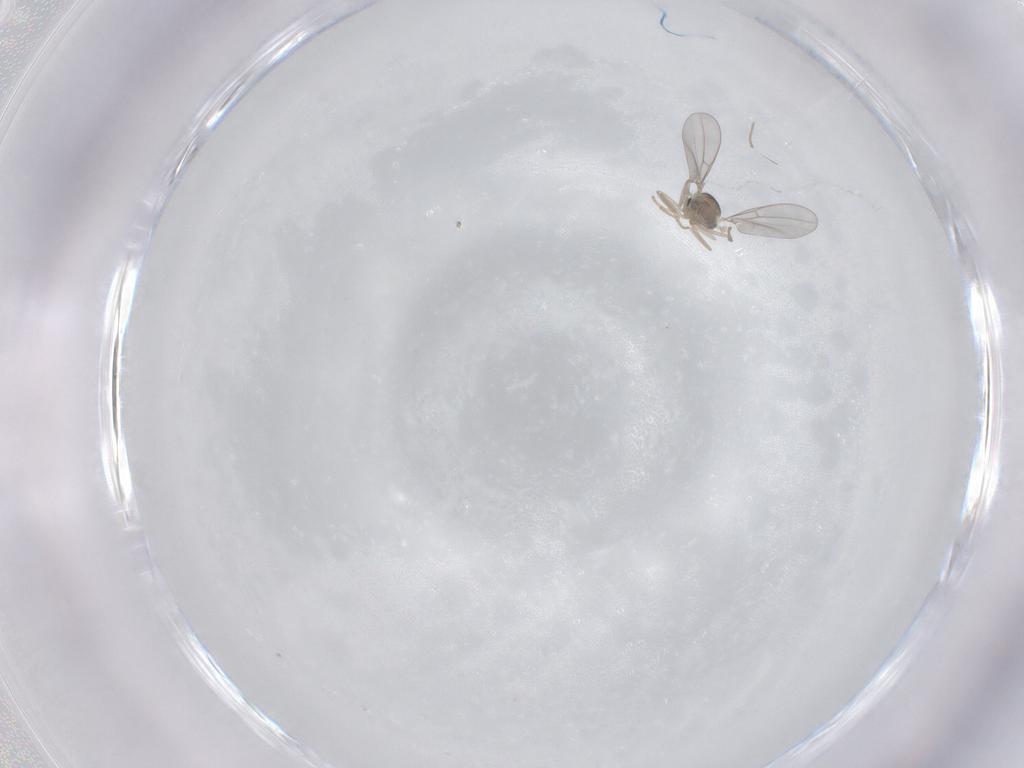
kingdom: Animalia
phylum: Arthropoda
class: Insecta
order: Diptera
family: Cecidomyiidae
